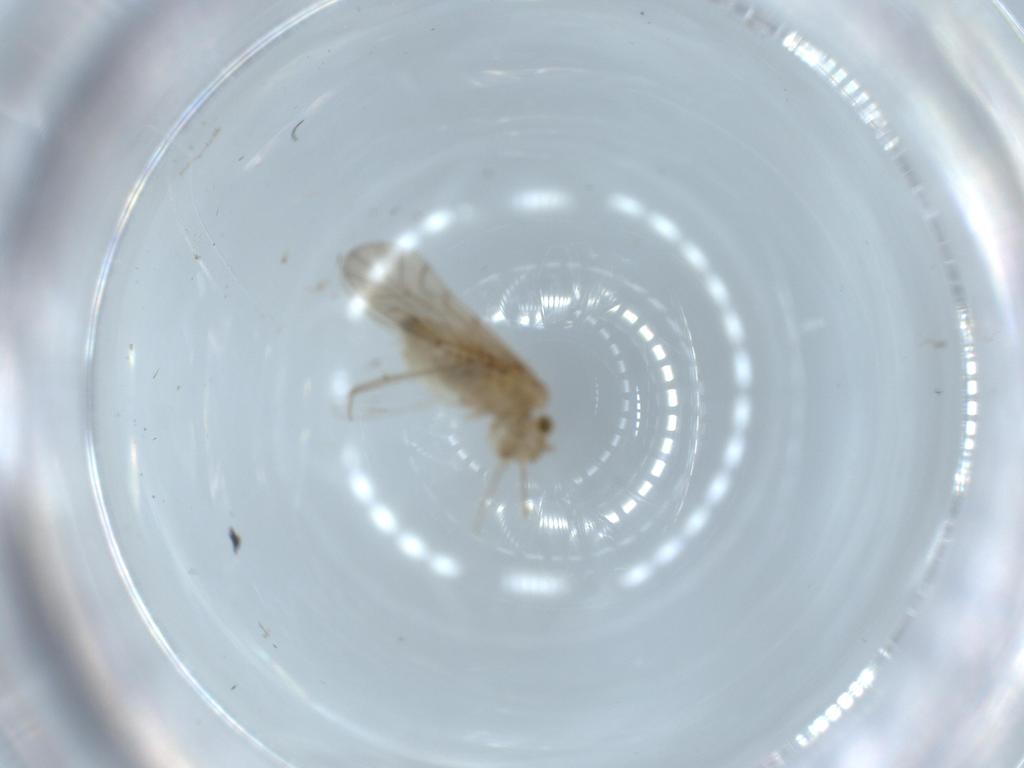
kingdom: Animalia
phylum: Arthropoda
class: Insecta
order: Psocodea
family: Lachesillidae
